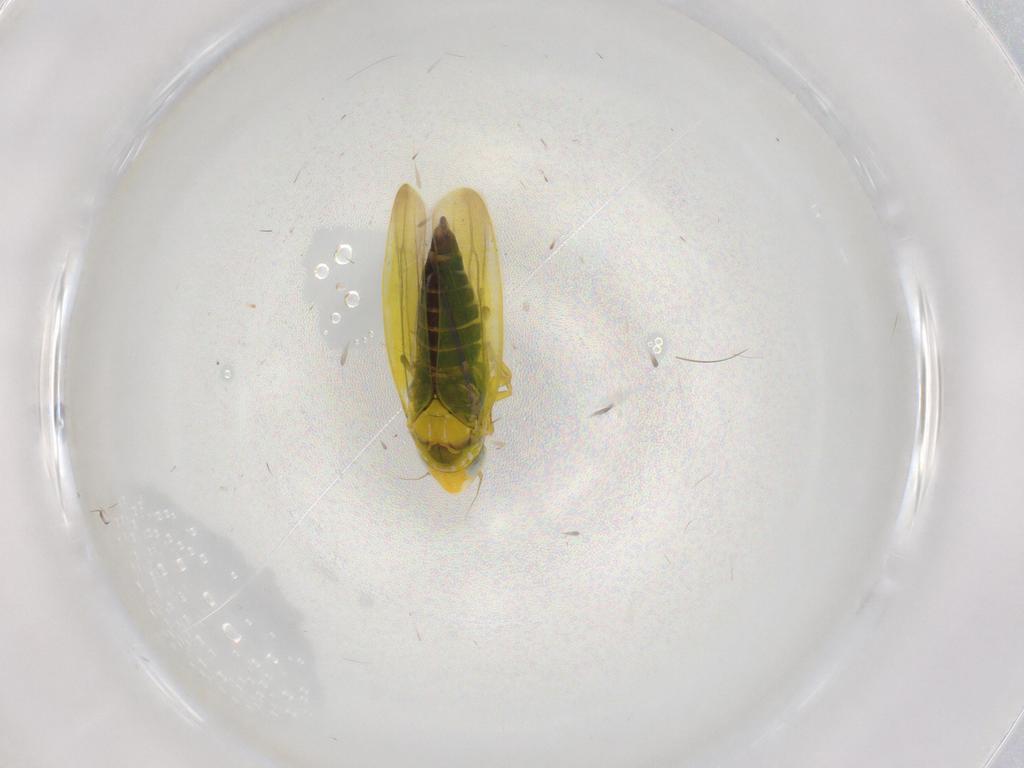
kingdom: Animalia
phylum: Arthropoda
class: Insecta
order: Hemiptera
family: Cicadellidae
